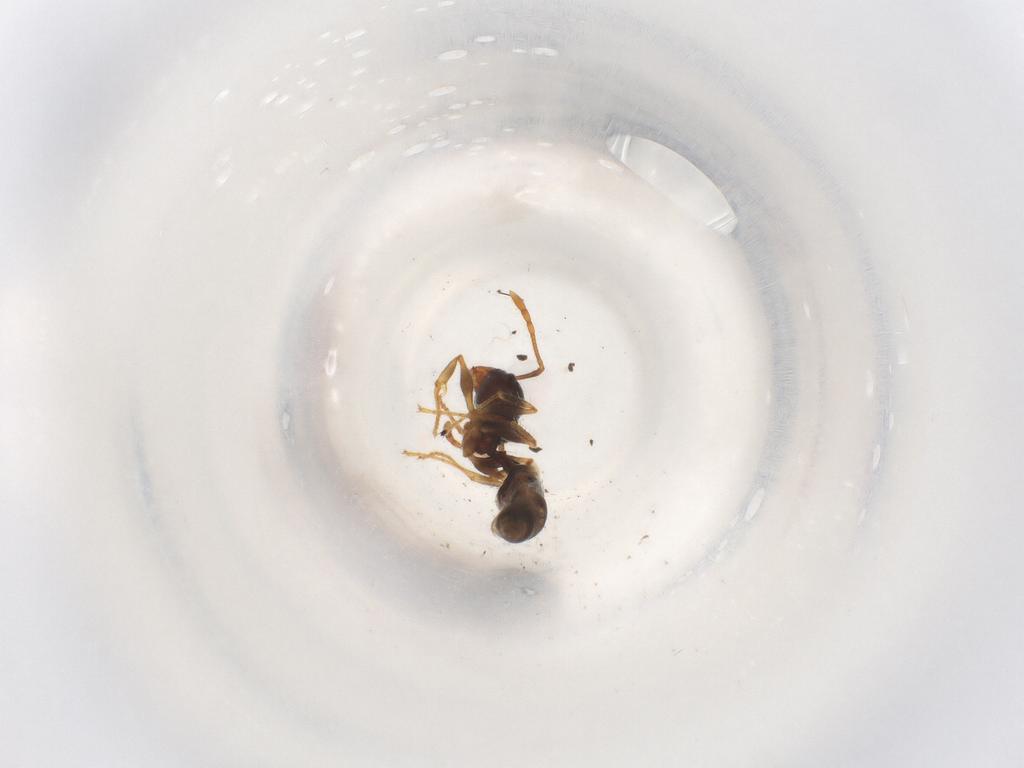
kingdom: Animalia
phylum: Arthropoda
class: Insecta
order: Hymenoptera
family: Formicidae
